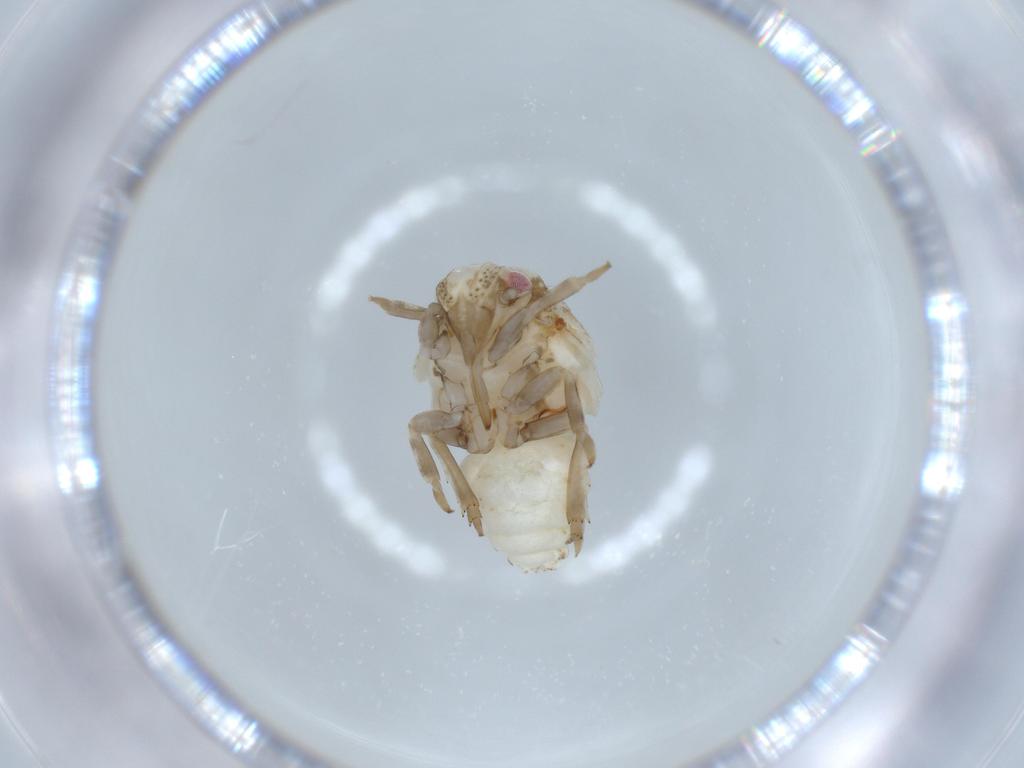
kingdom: Animalia
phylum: Arthropoda
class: Insecta
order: Hemiptera
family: Acanaloniidae
